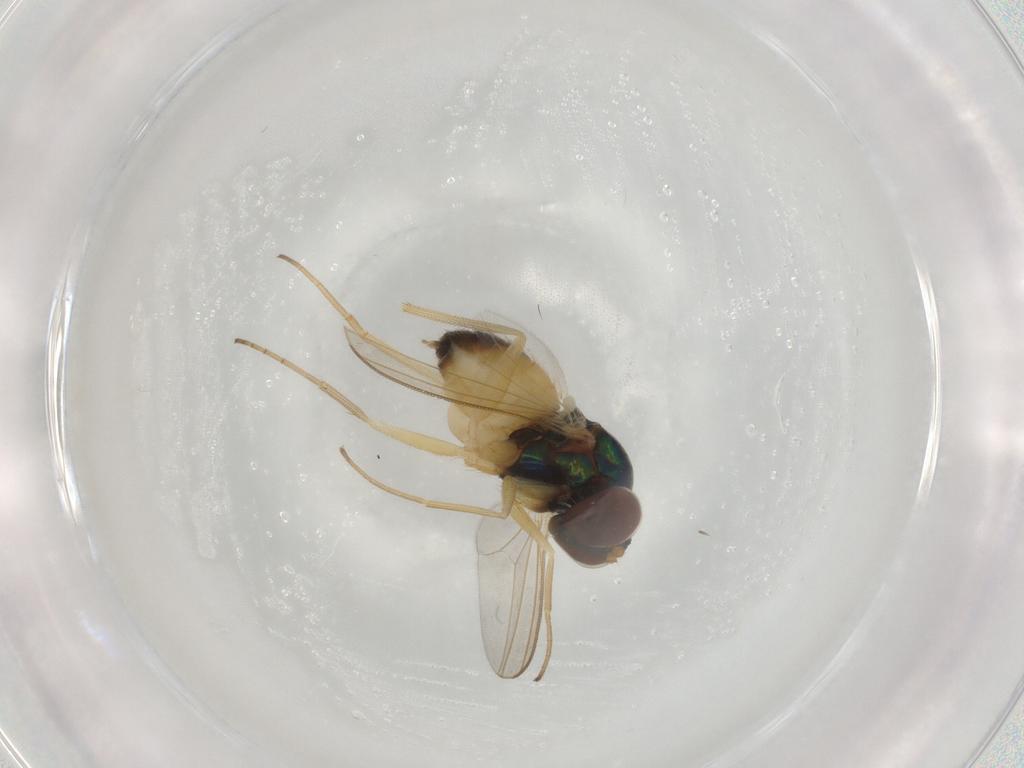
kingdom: Animalia
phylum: Arthropoda
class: Insecta
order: Diptera
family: Dolichopodidae
